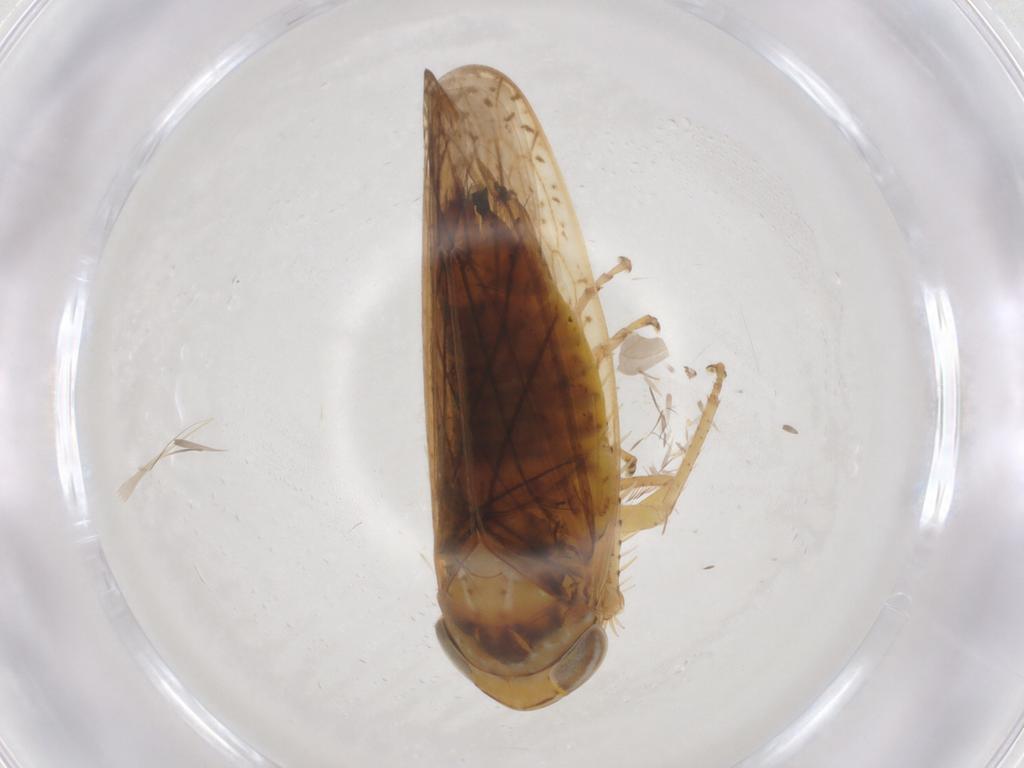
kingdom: Animalia
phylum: Arthropoda
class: Insecta
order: Hemiptera
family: Cicadellidae
